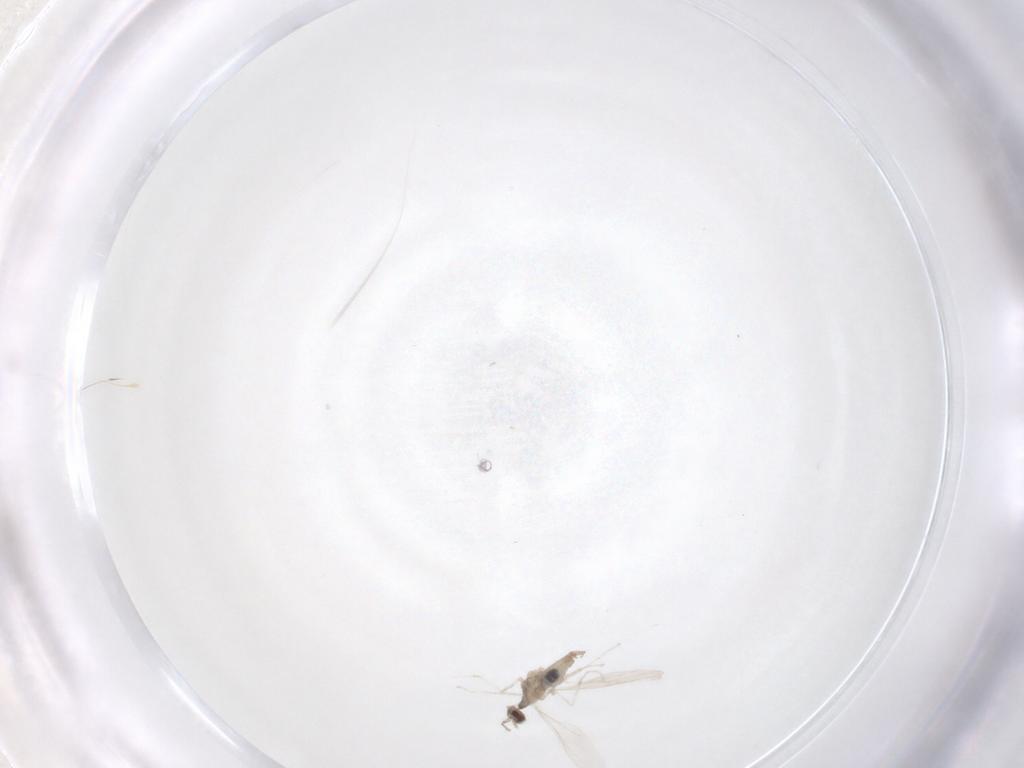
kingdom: Animalia
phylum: Arthropoda
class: Insecta
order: Diptera
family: Cecidomyiidae
